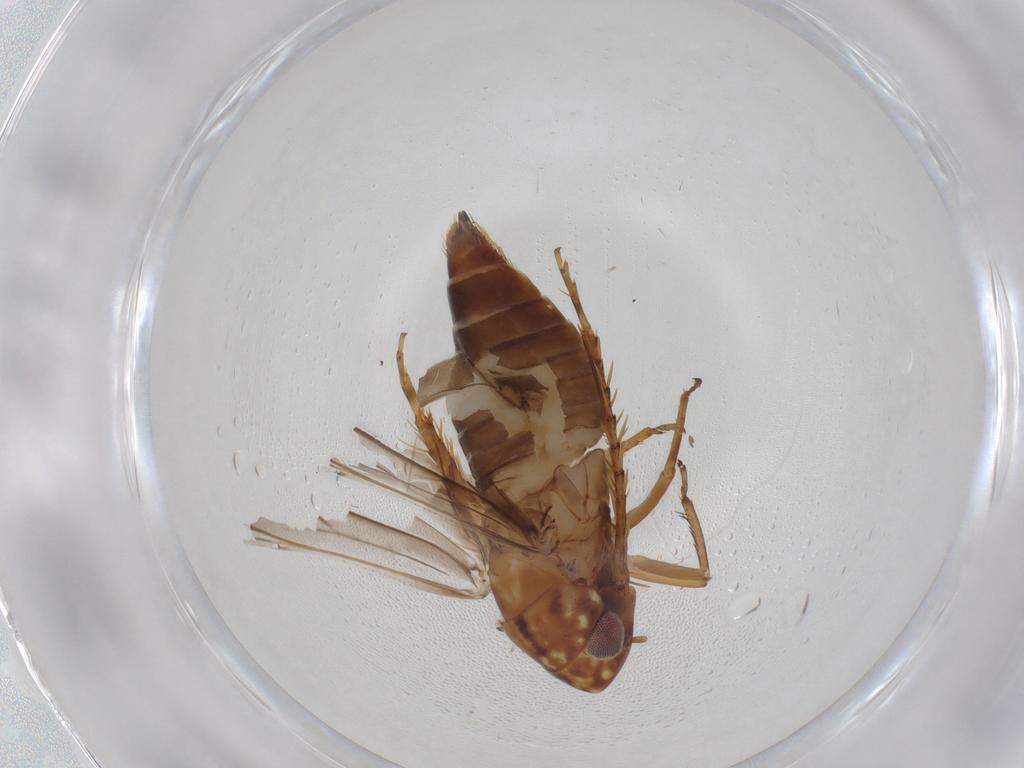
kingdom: Animalia
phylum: Arthropoda
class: Insecta
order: Hemiptera
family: Cicadellidae
